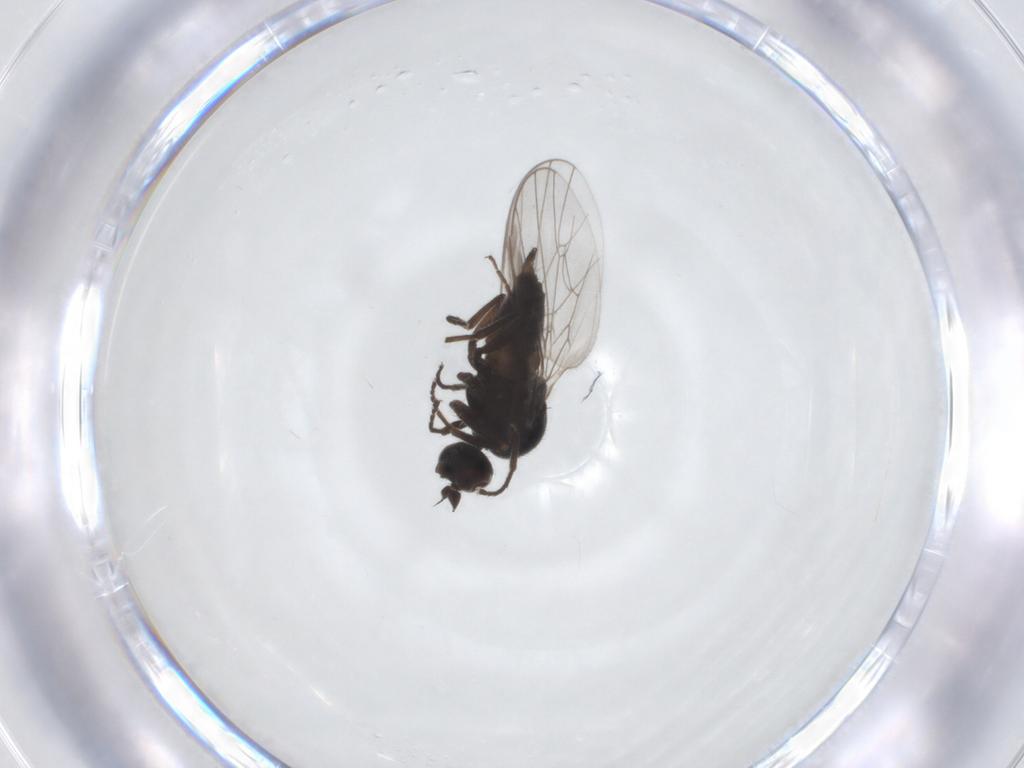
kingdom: Animalia
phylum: Arthropoda
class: Insecta
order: Diptera
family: Hybotidae
